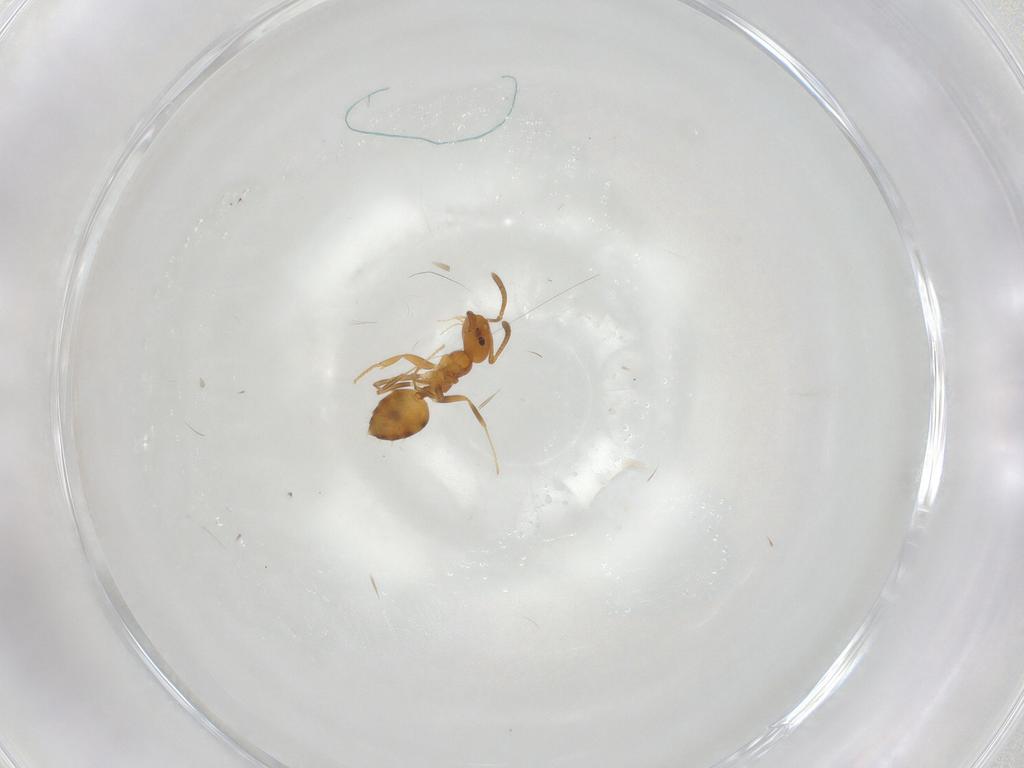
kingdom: Animalia
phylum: Arthropoda
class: Insecta
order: Hymenoptera
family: Formicidae
